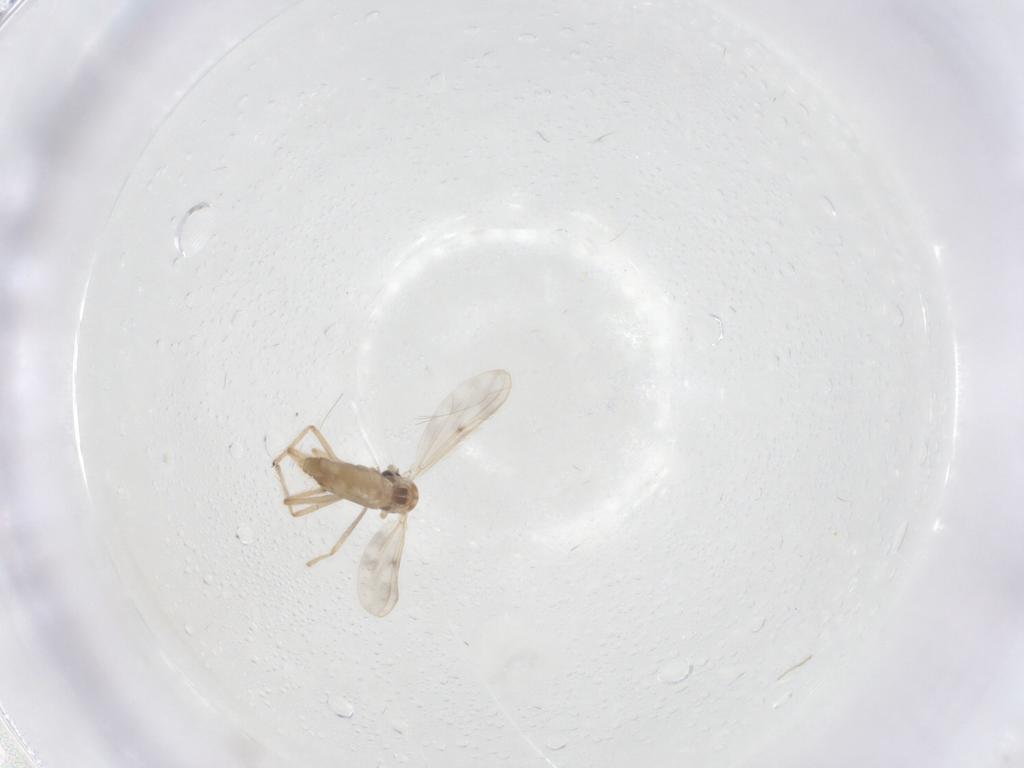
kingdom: Animalia
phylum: Arthropoda
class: Insecta
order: Diptera
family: Chironomidae
